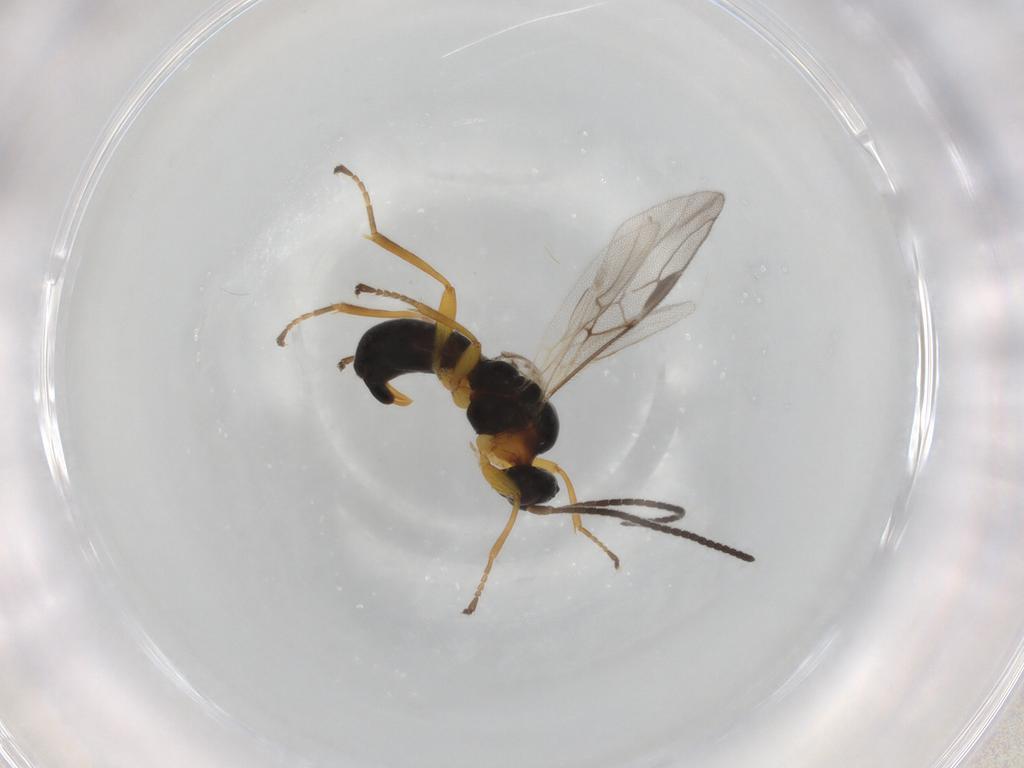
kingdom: Animalia
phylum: Arthropoda
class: Insecta
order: Hymenoptera
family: Braconidae
